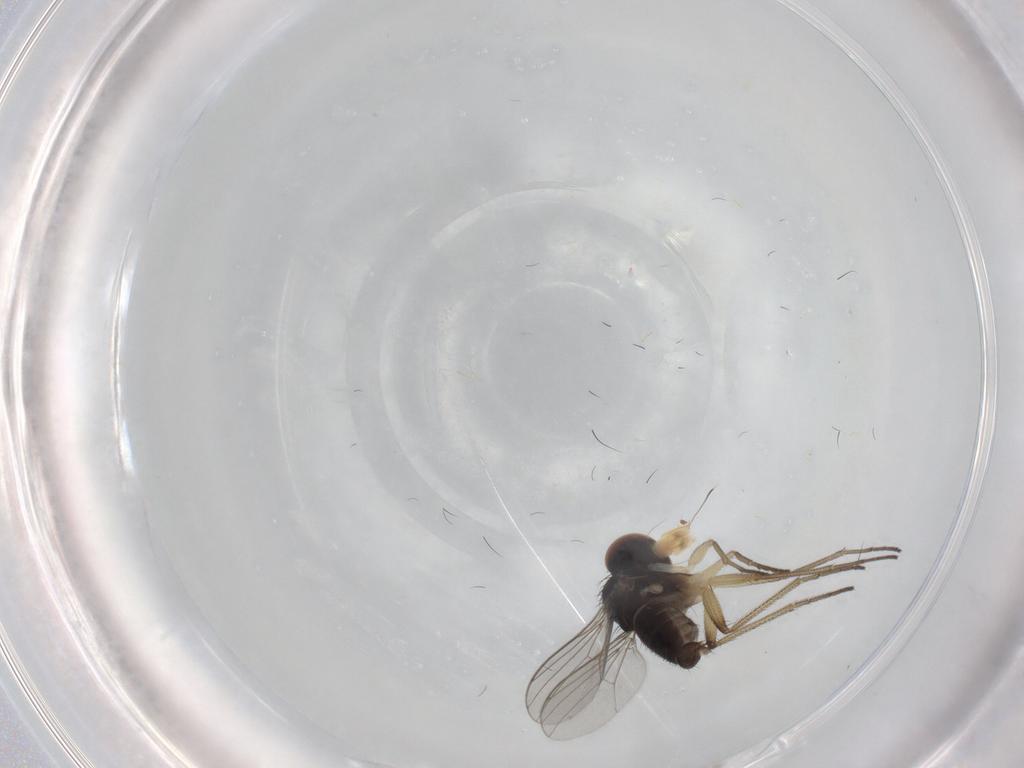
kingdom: Animalia
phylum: Arthropoda
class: Insecta
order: Diptera
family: Dolichopodidae
